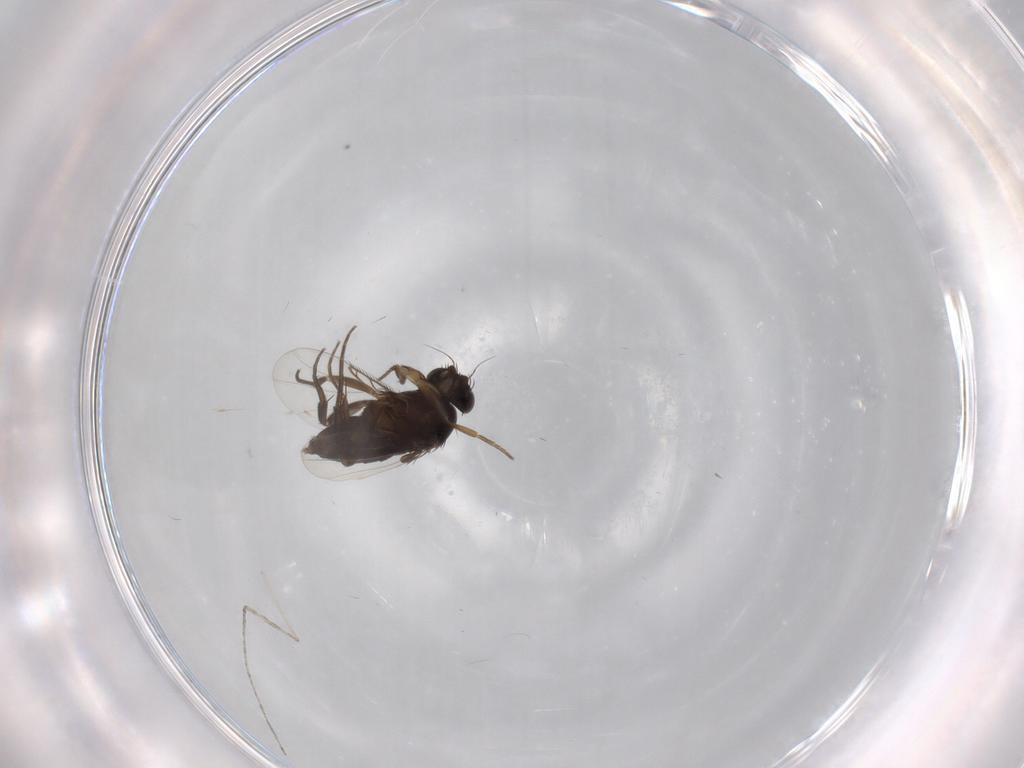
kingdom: Animalia
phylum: Arthropoda
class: Insecta
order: Diptera
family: Phoridae
